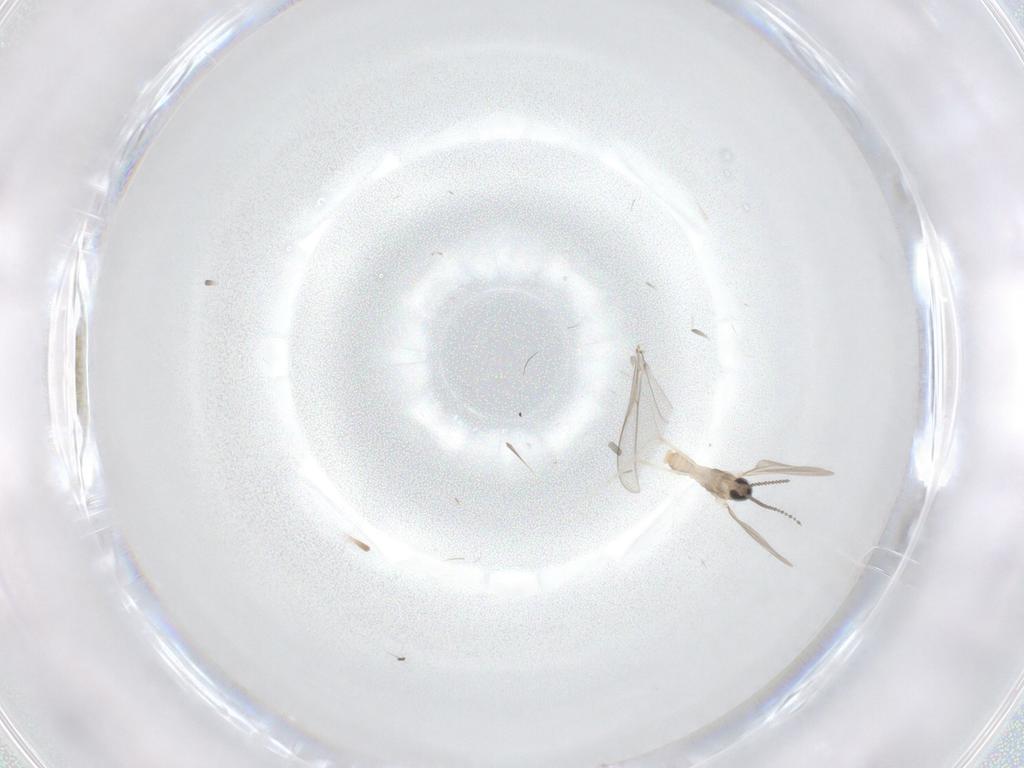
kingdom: Animalia
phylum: Arthropoda
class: Insecta
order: Diptera
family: Cecidomyiidae
